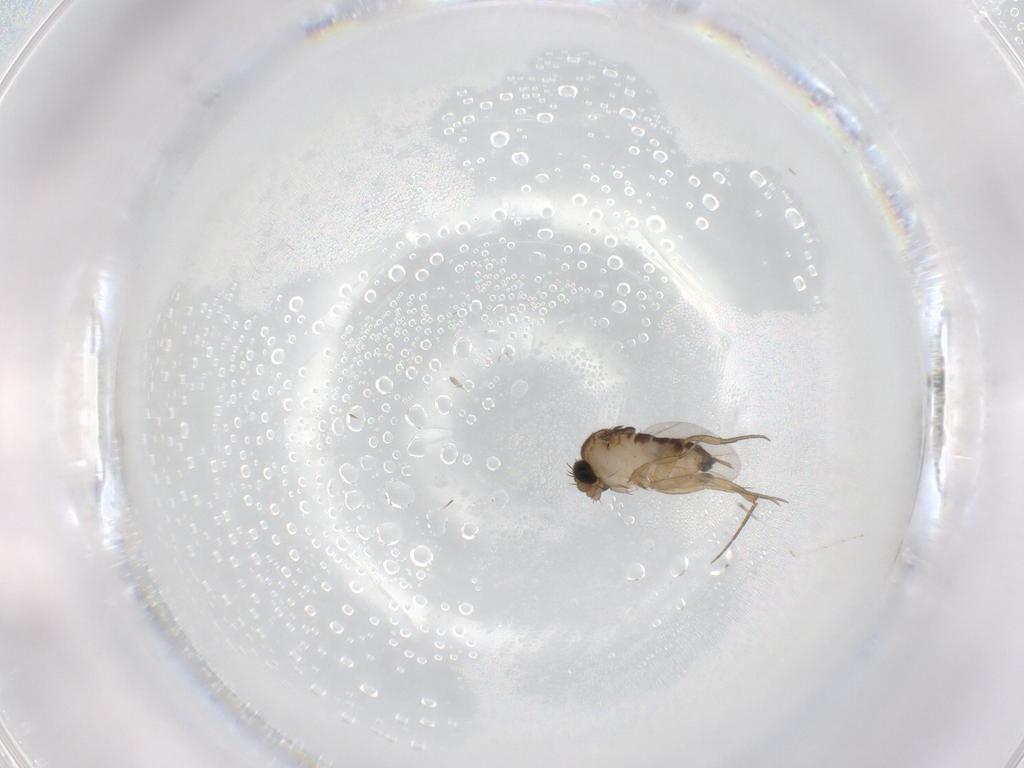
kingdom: Animalia
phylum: Arthropoda
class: Insecta
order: Diptera
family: Phoridae
